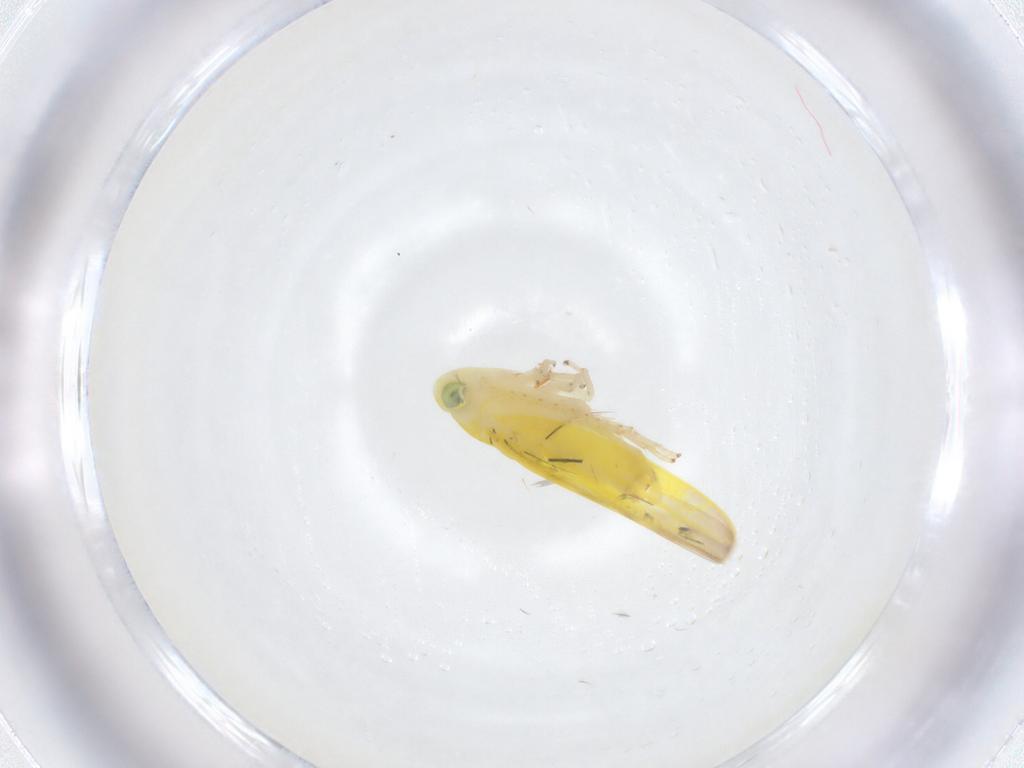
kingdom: Animalia
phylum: Arthropoda
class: Insecta
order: Hemiptera
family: Cicadellidae
